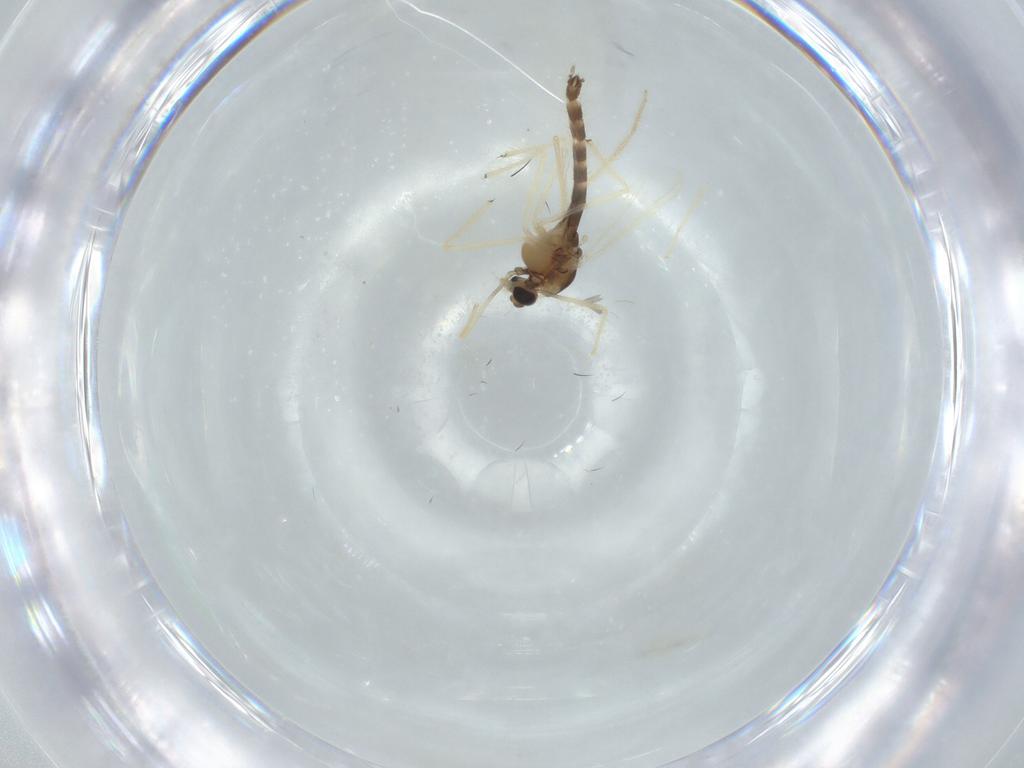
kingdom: Animalia
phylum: Arthropoda
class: Insecta
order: Diptera
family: Chironomidae
